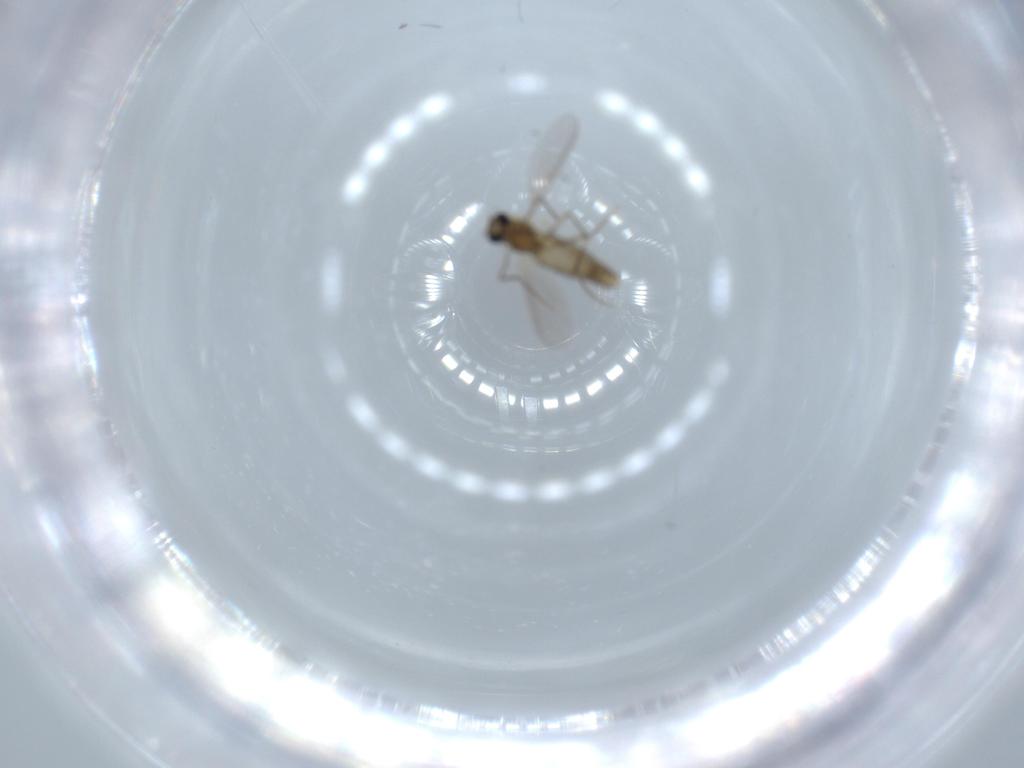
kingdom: Animalia
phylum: Arthropoda
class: Insecta
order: Diptera
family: Chironomidae
